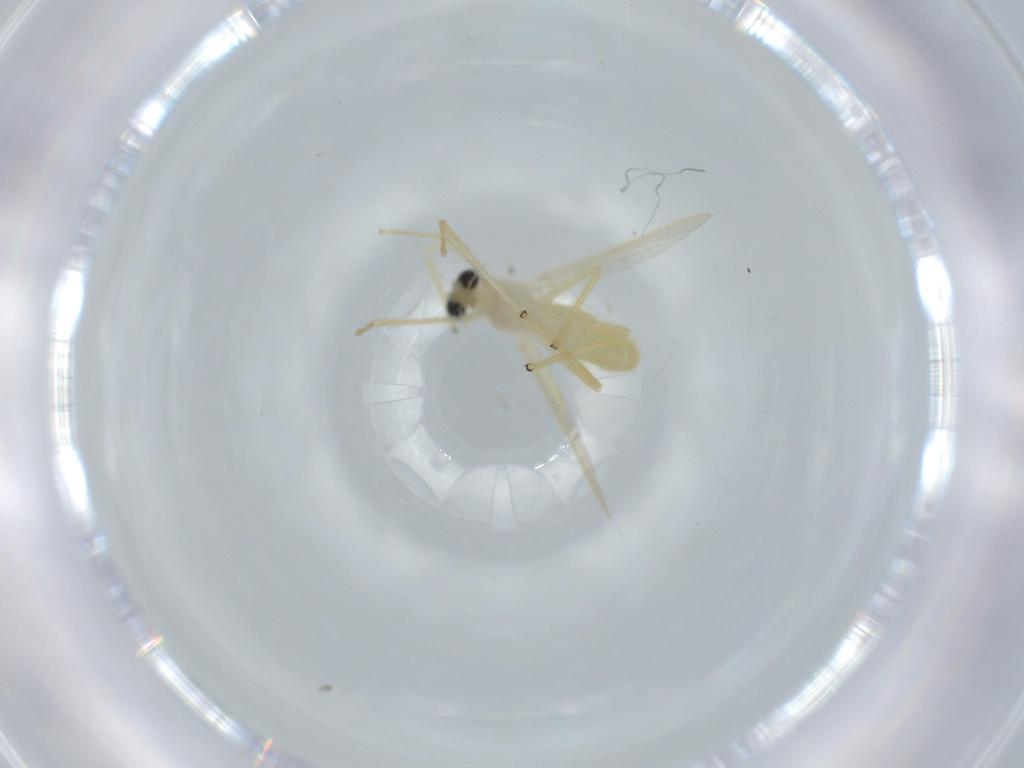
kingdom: Animalia
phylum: Arthropoda
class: Insecta
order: Diptera
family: Chironomidae
